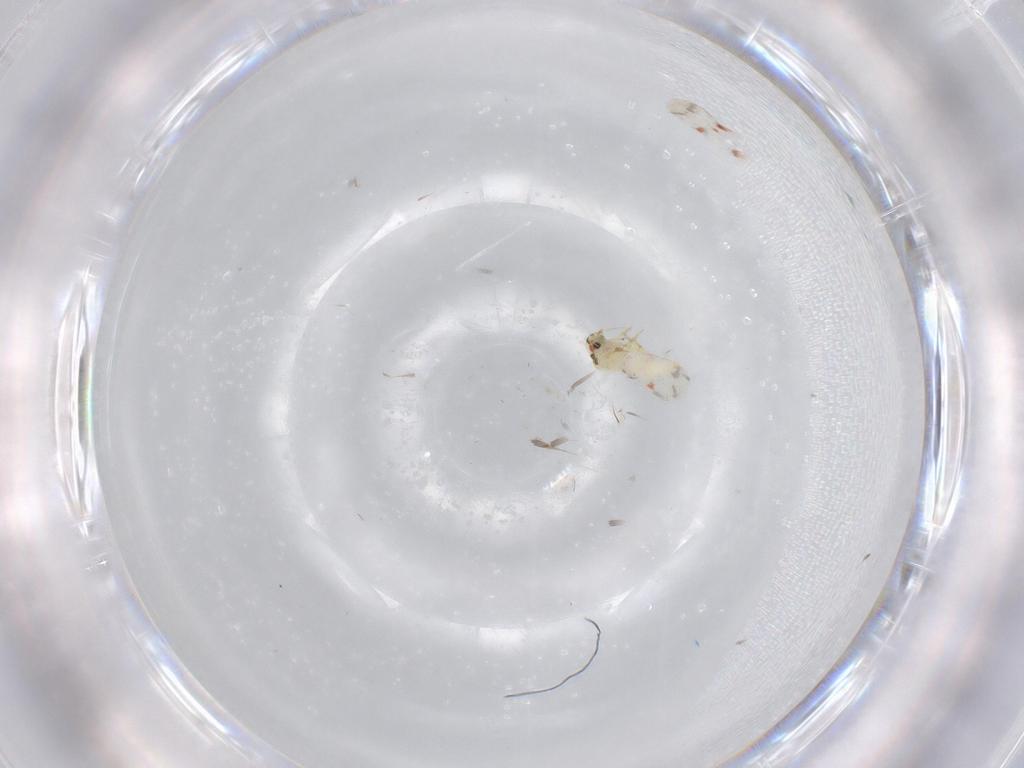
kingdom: Animalia
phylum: Arthropoda
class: Insecta
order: Hemiptera
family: Aleyrodidae
